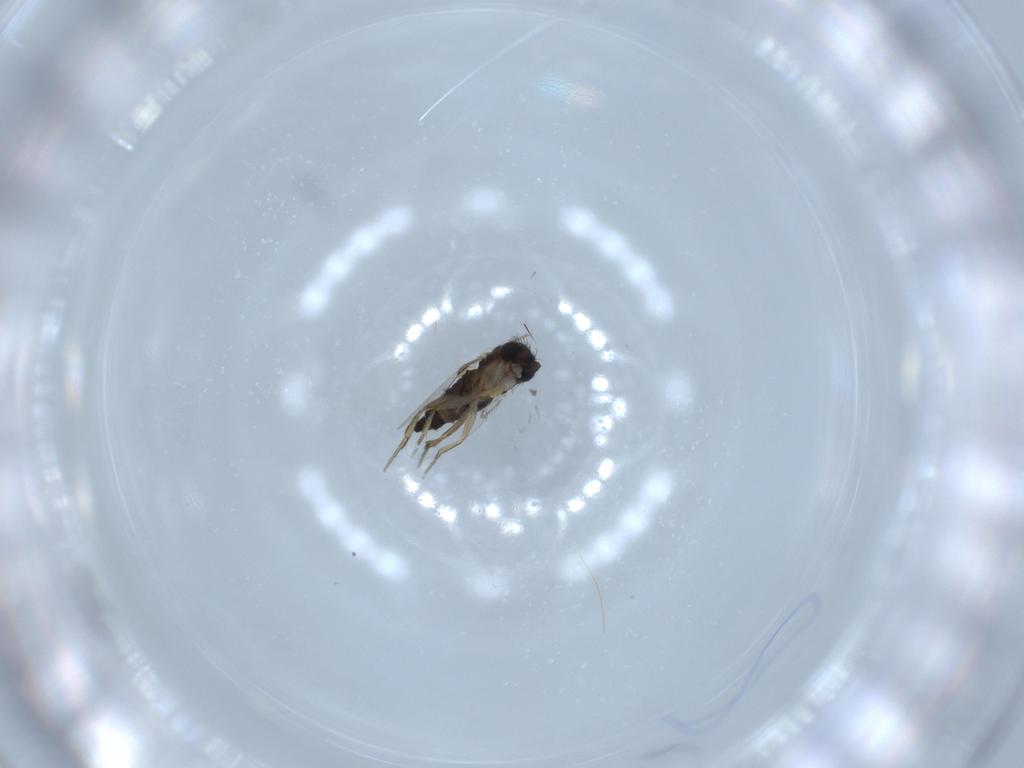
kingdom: Animalia
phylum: Arthropoda
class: Insecta
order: Diptera
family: Phoridae
